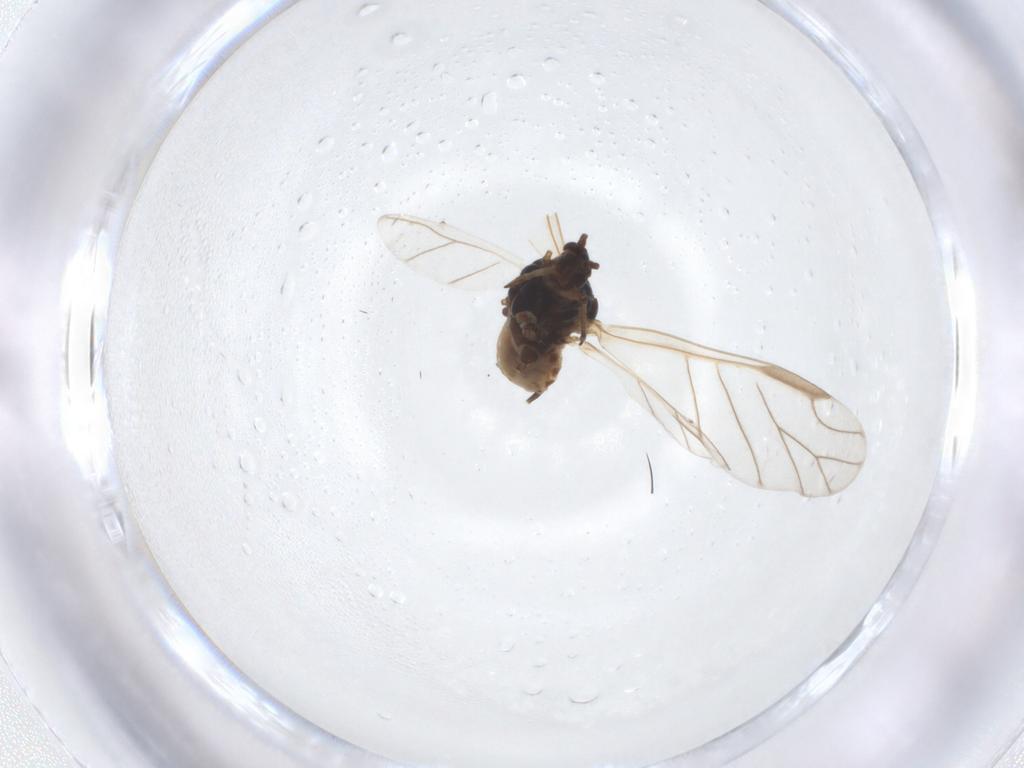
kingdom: Animalia
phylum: Arthropoda
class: Insecta
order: Hemiptera
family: Aphididae
